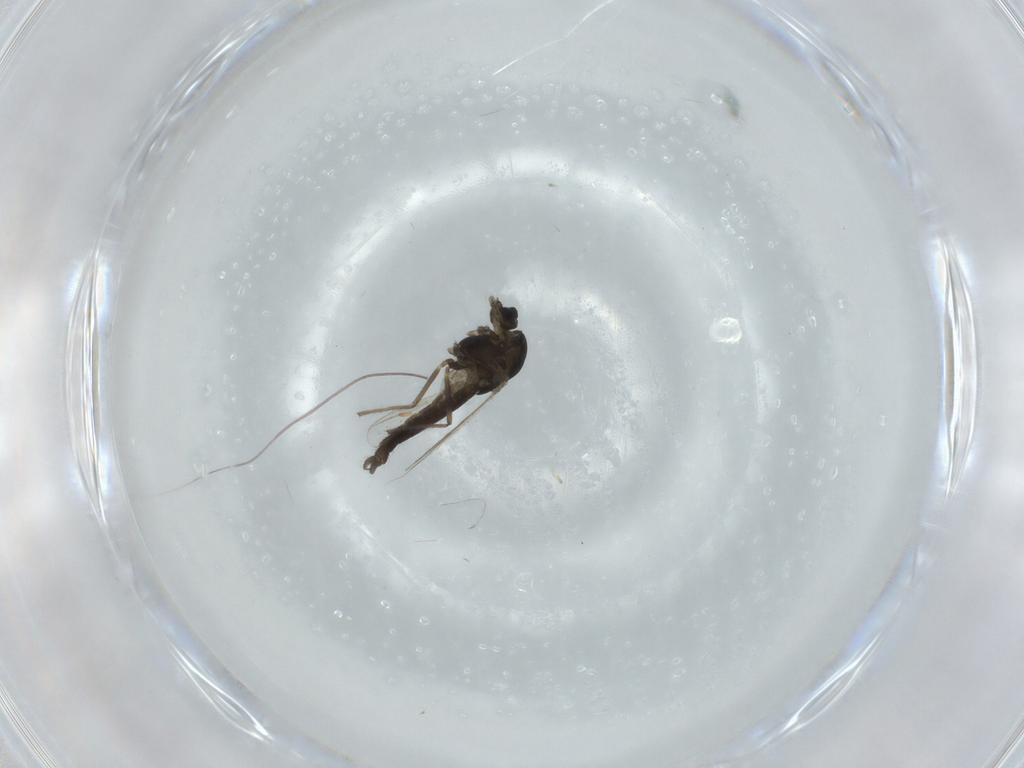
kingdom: Animalia
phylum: Arthropoda
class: Insecta
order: Diptera
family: Chironomidae
